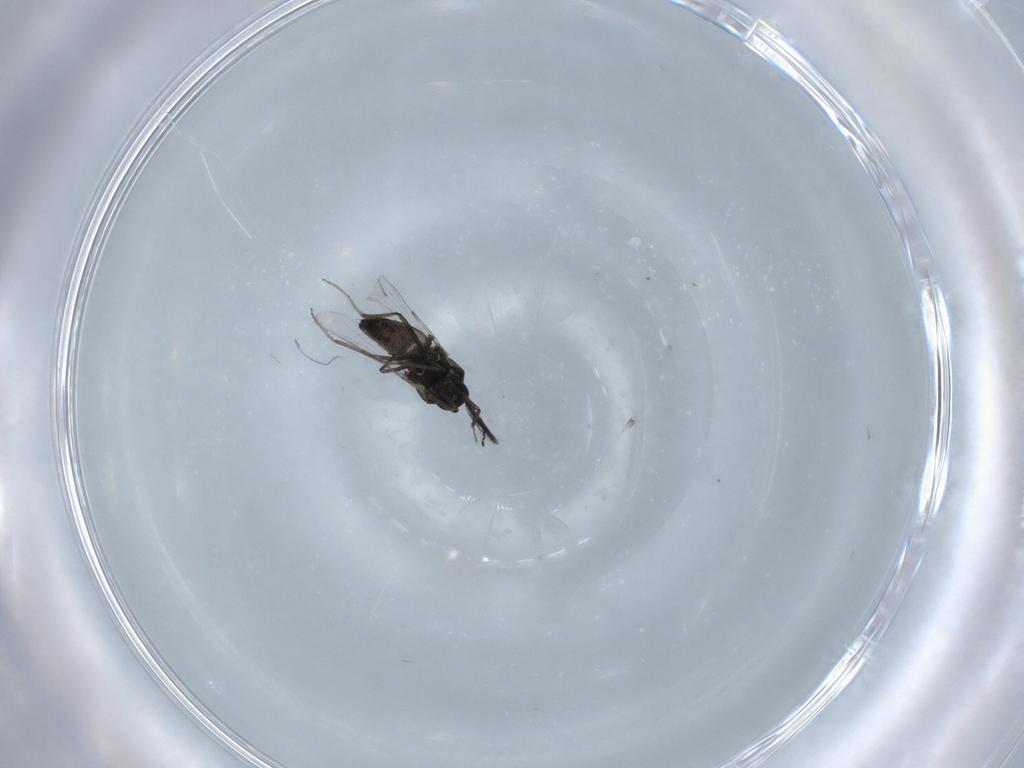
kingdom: Animalia
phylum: Arthropoda
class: Insecta
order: Diptera
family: Ceratopogonidae
